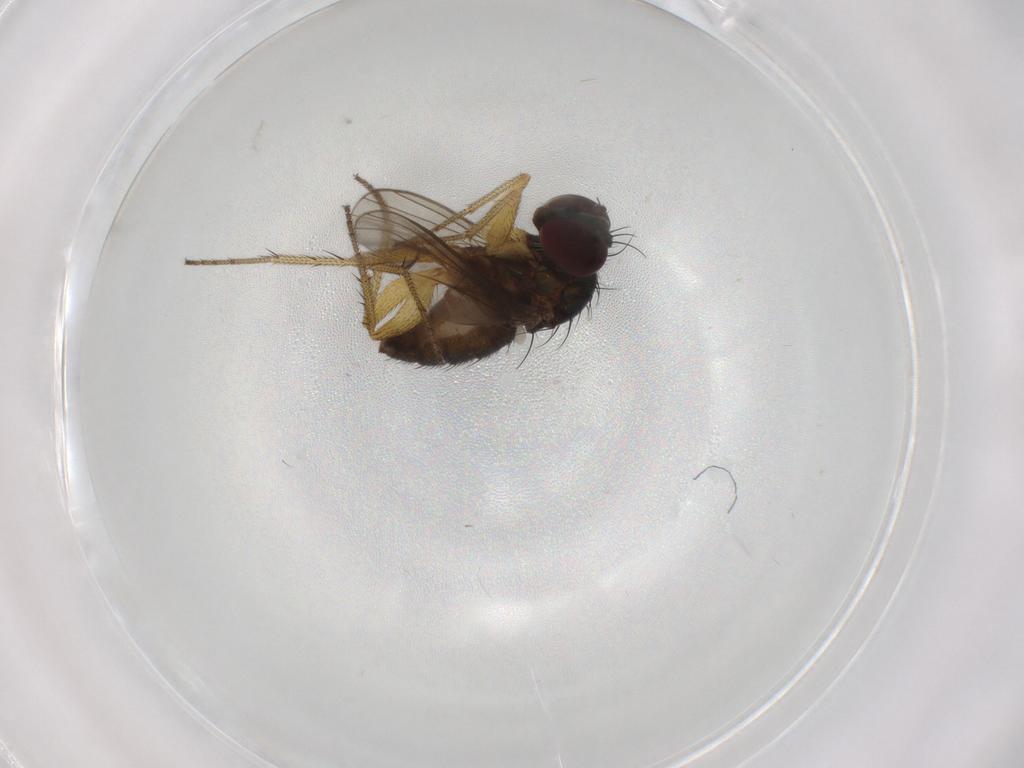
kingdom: Animalia
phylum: Arthropoda
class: Insecta
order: Diptera
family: Dolichopodidae
